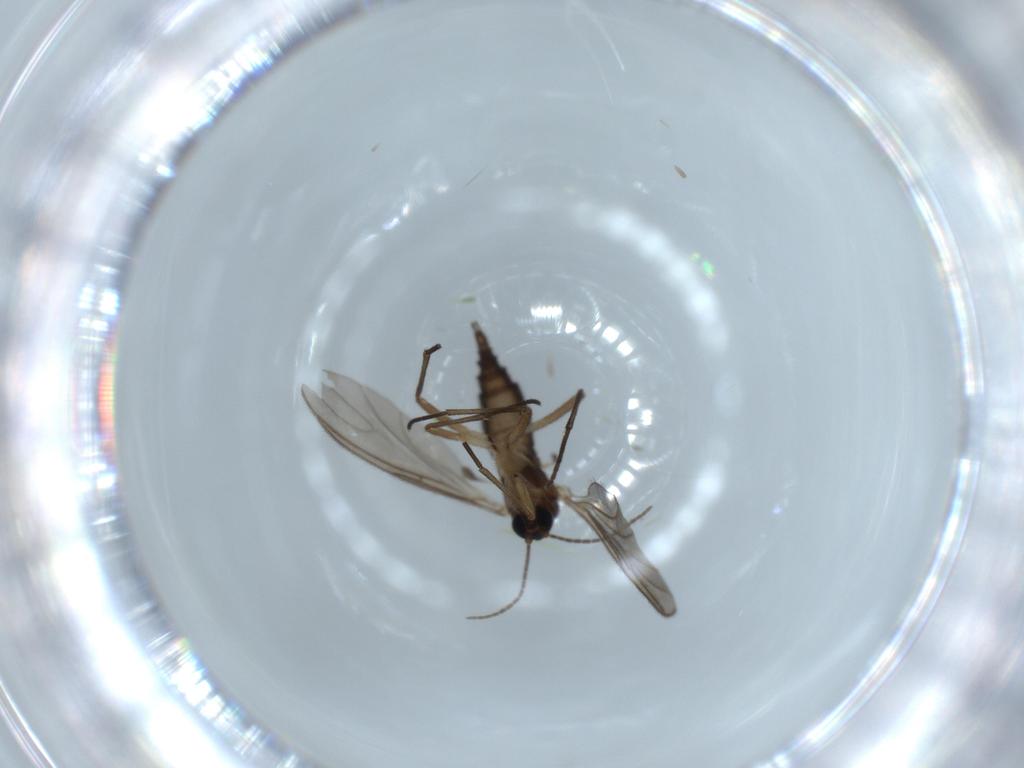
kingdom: Animalia
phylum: Arthropoda
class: Insecta
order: Diptera
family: Sciaridae
